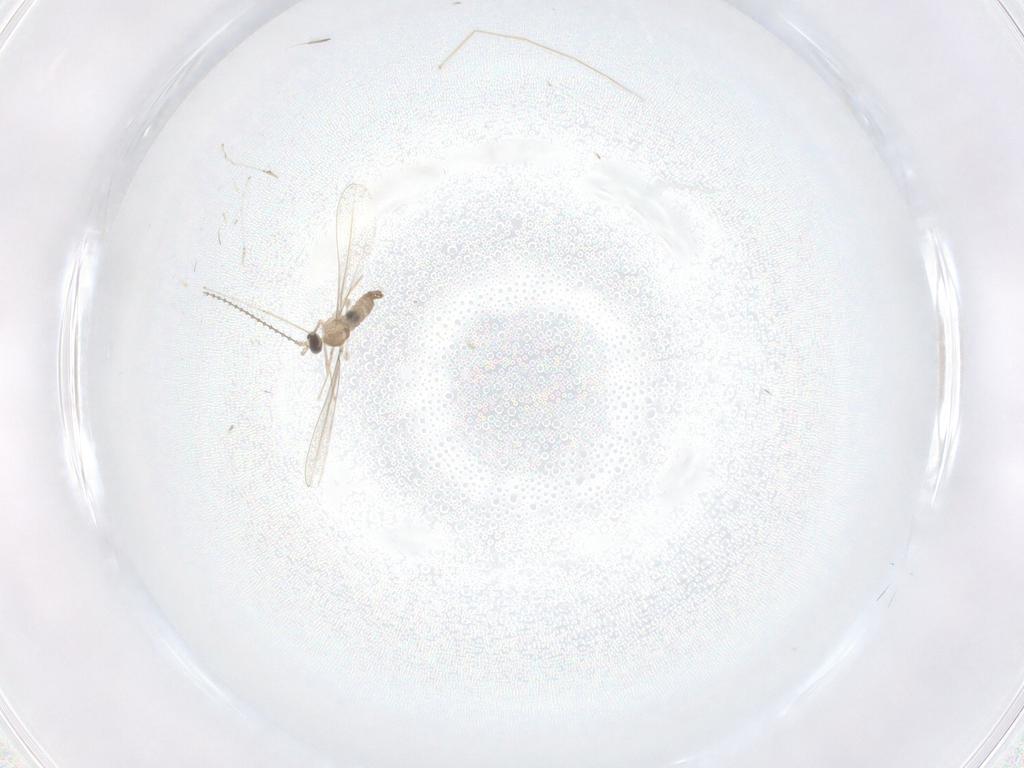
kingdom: Animalia
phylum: Arthropoda
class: Insecta
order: Diptera
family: Cecidomyiidae
